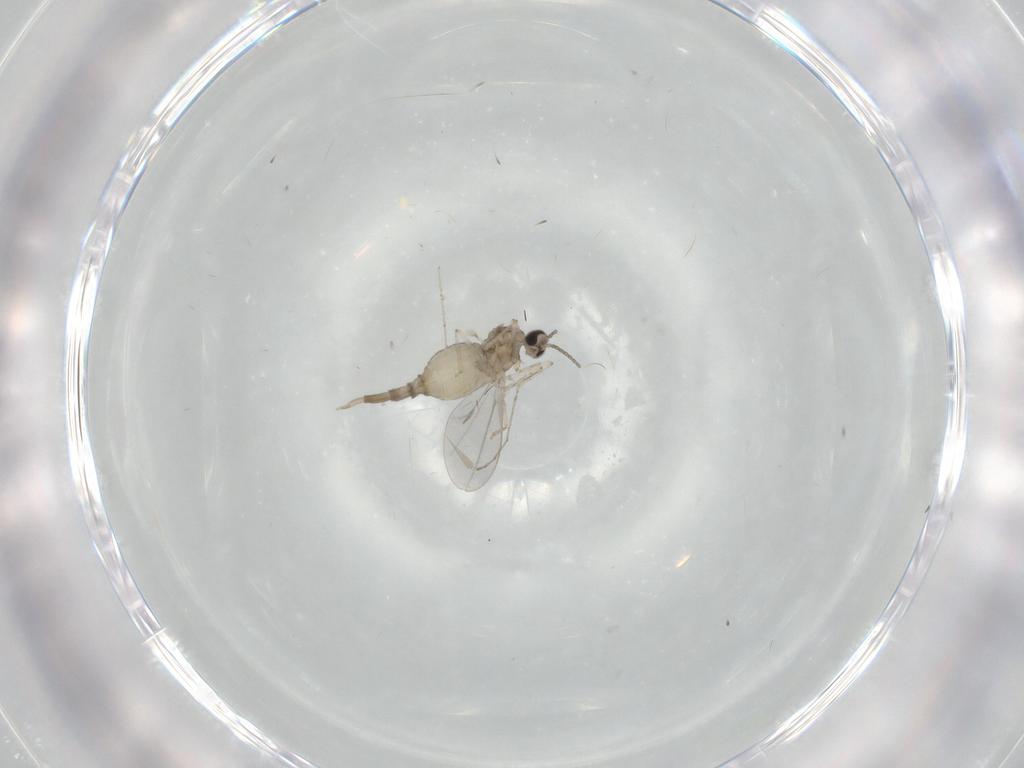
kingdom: Animalia
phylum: Arthropoda
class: Insecta
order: Diptera
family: Cecidomyiidae
